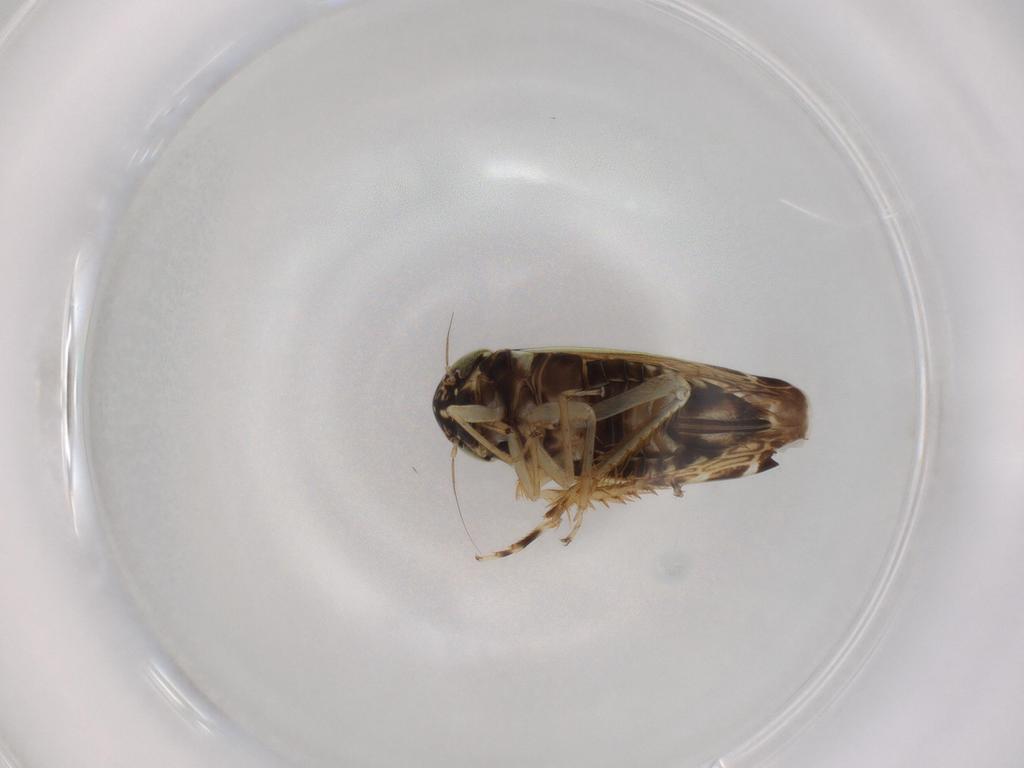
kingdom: Animalia
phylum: Arthropoda
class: Insecta
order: Hemiptera
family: Cicadellidae
